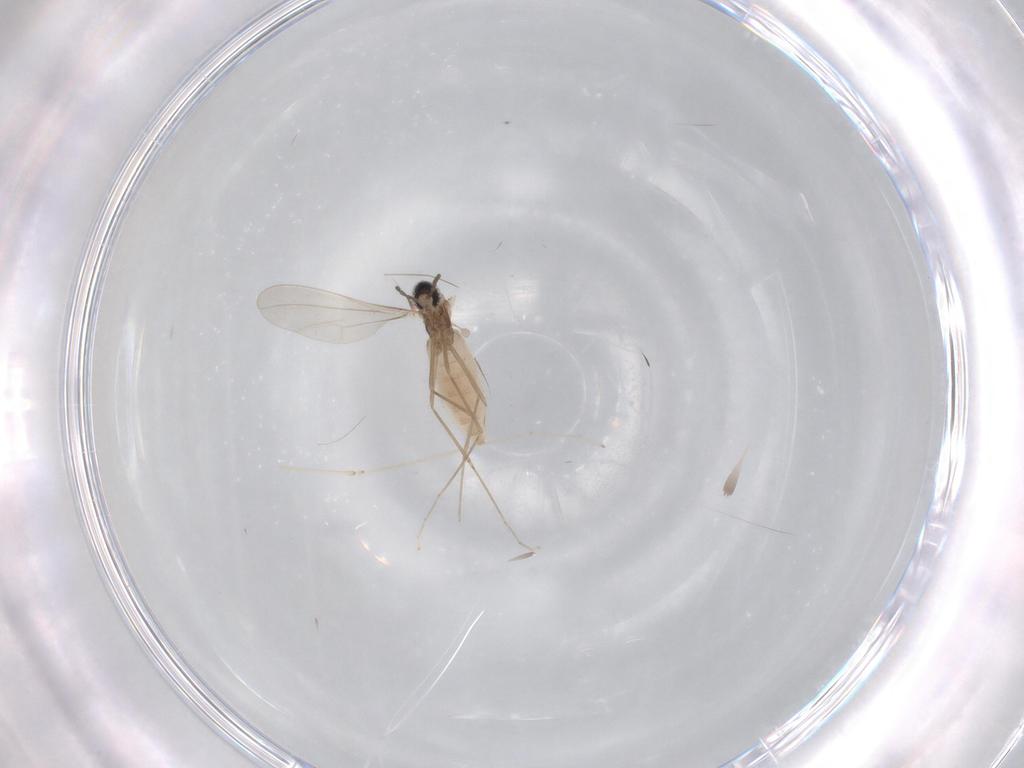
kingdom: Animalia
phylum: Arthropoda
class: Insecta
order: Diptera
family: Cecidomyiidae
